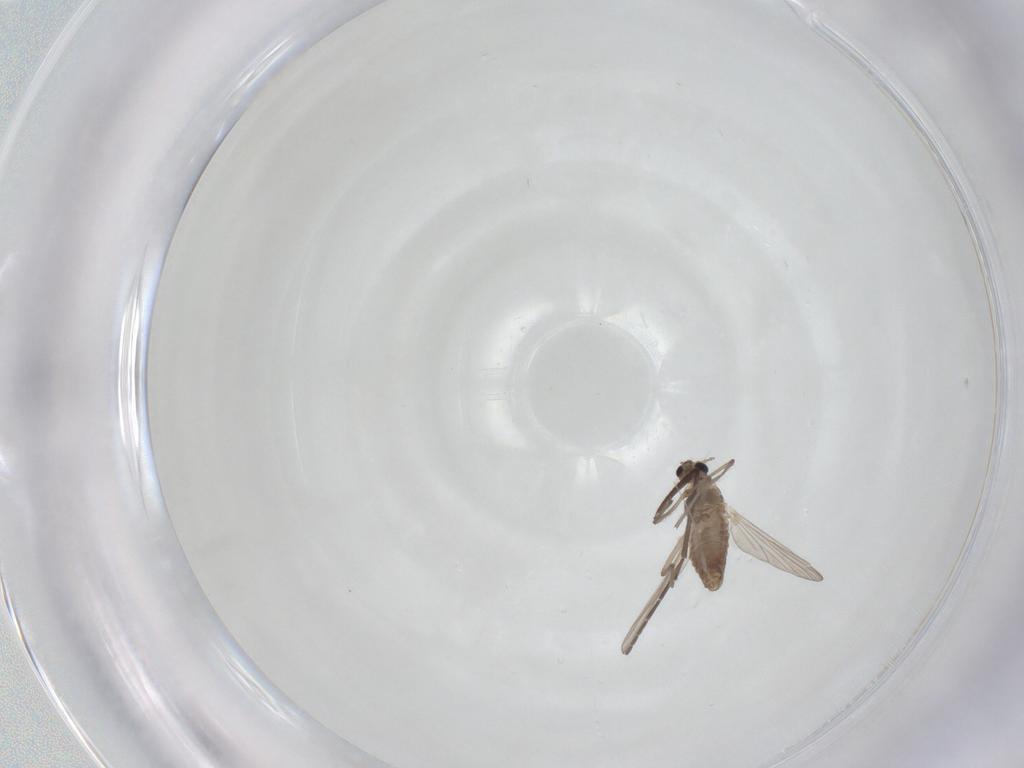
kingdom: Animalia
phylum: Arthropoda
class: Insecta
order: Diptera
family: Chironomidae
